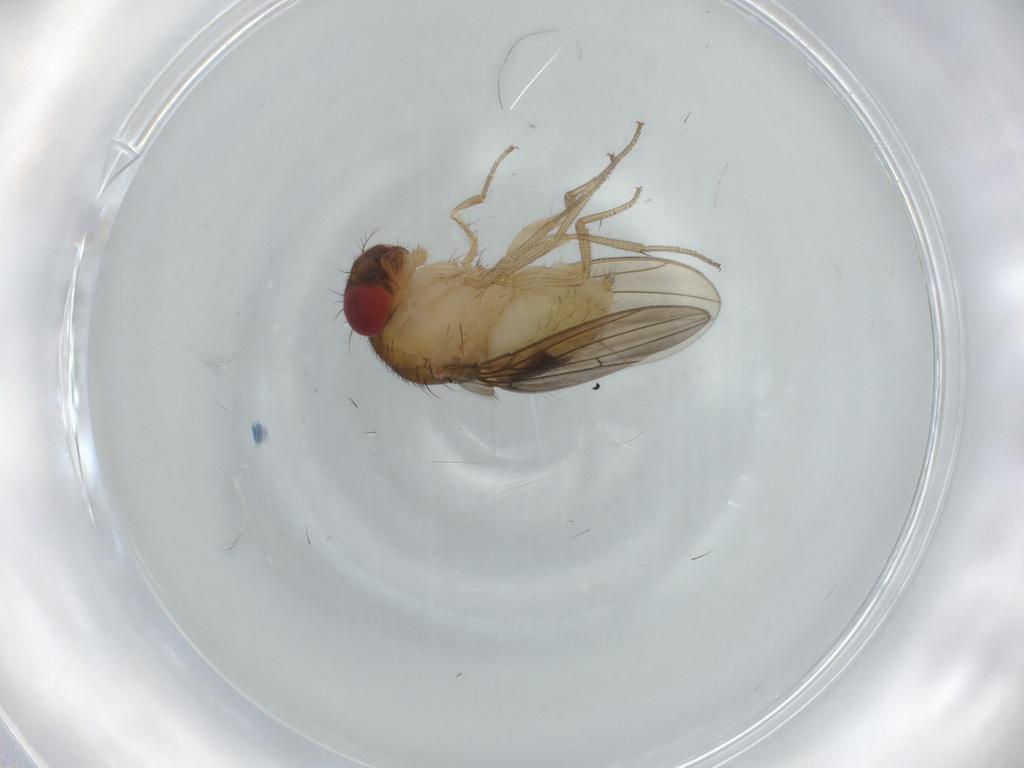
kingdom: Animalia
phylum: Arthropoda
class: Insecta
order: Diptera
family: Drosophilidae
